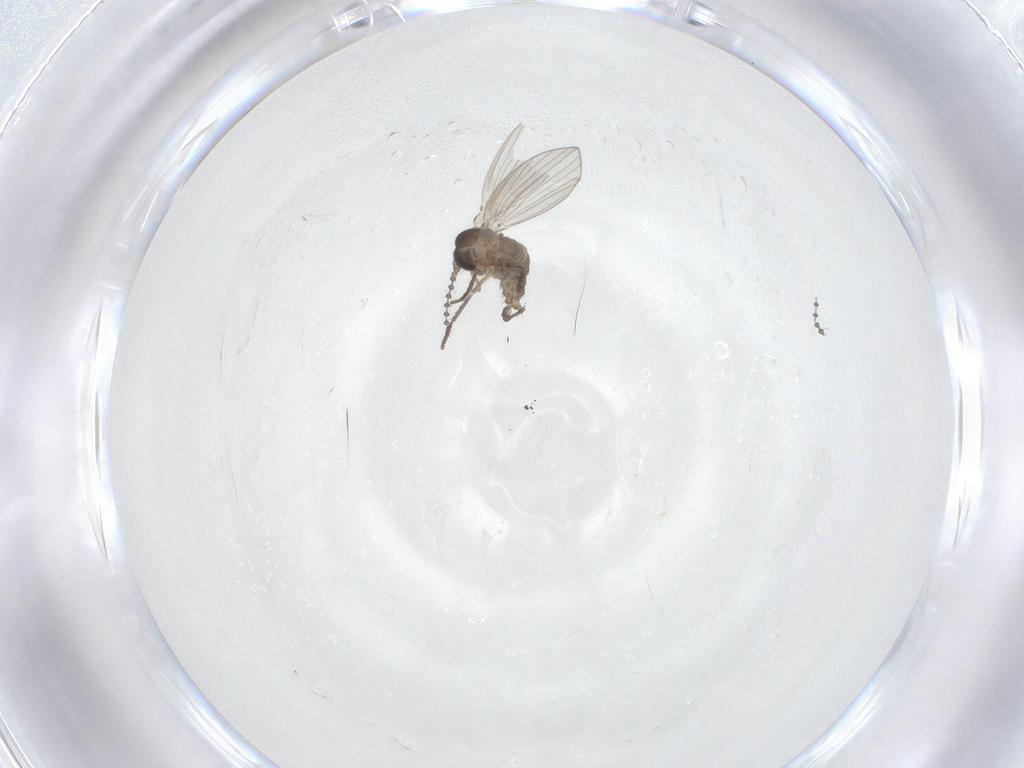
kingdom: Animalia
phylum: Arthropoda
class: Insecta
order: Diptera
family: Psychodidae
